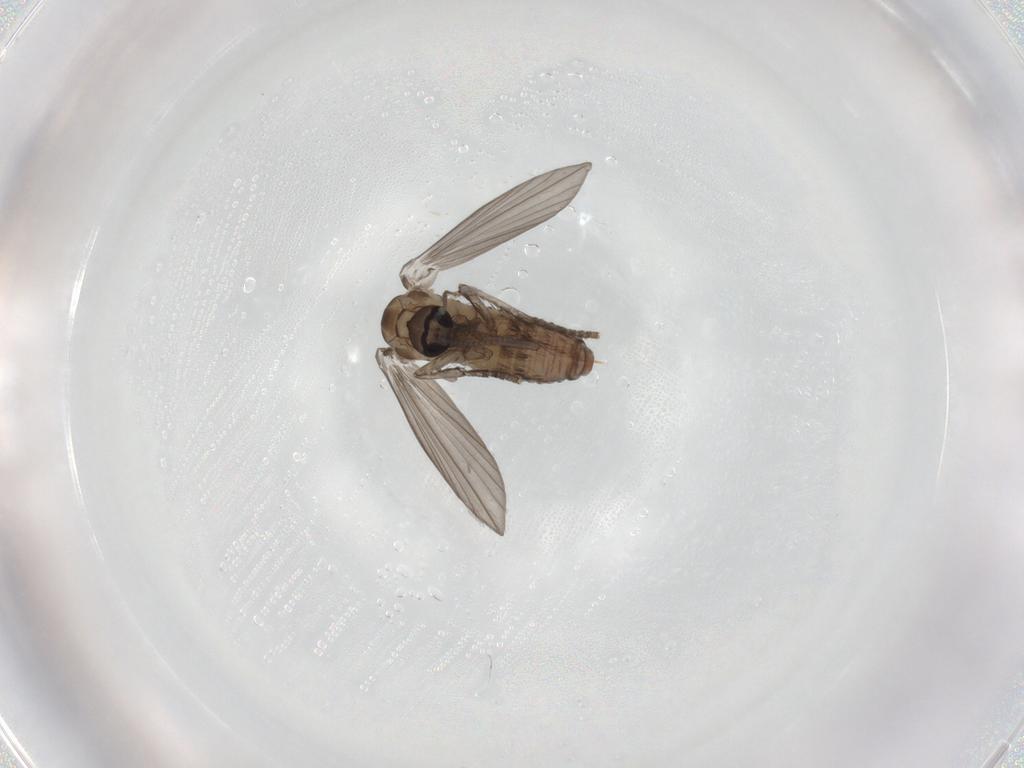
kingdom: Animalia
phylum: Arthropoda
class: Insecta
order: Diptera
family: Psychodidae
